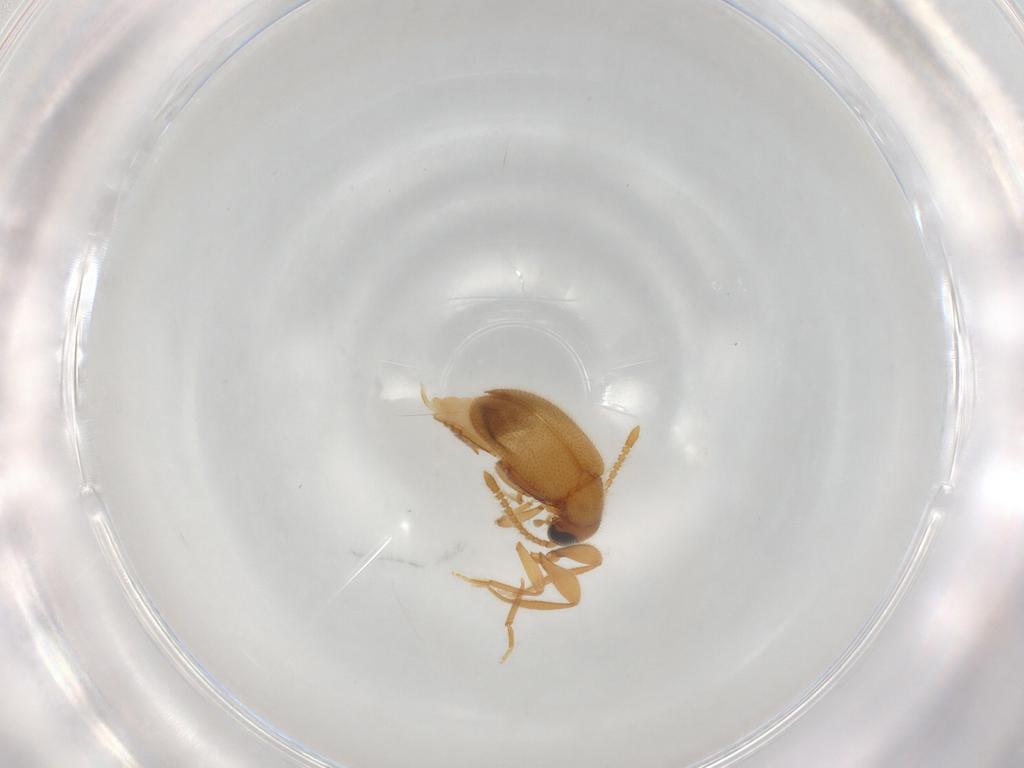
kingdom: Animalia
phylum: Arthropoda
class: Insecta
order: Coleoptera
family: Aderidae
